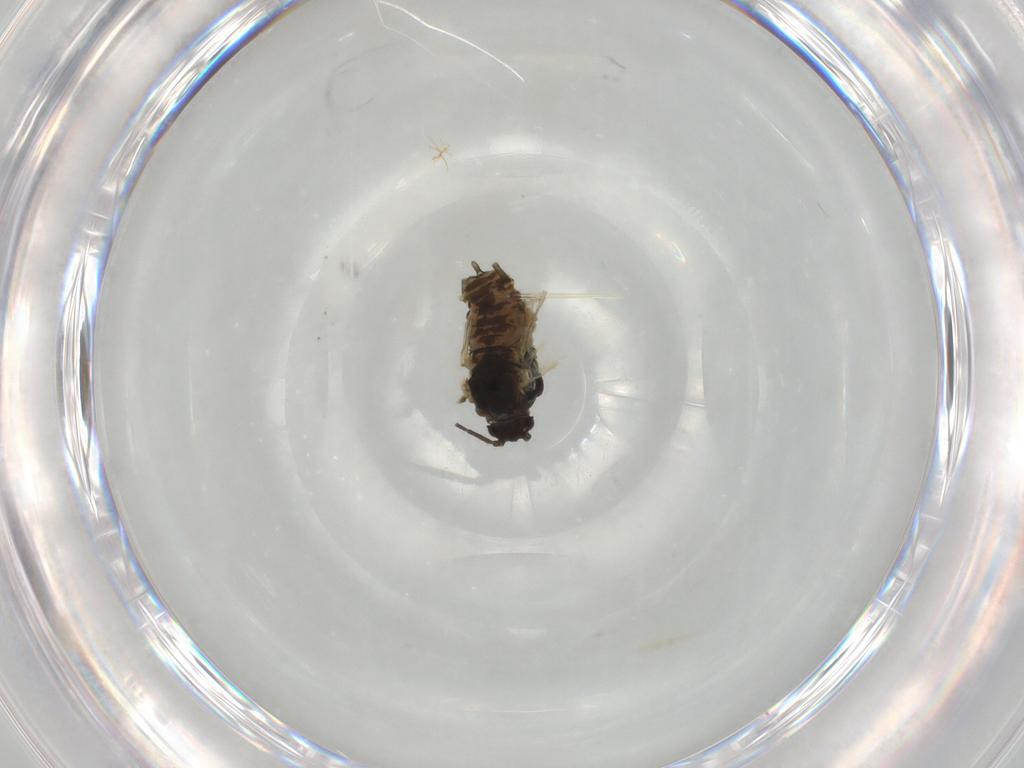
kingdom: Animalia
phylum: Arthropoda
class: Insecta
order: Hemiptera
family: Aphididae
